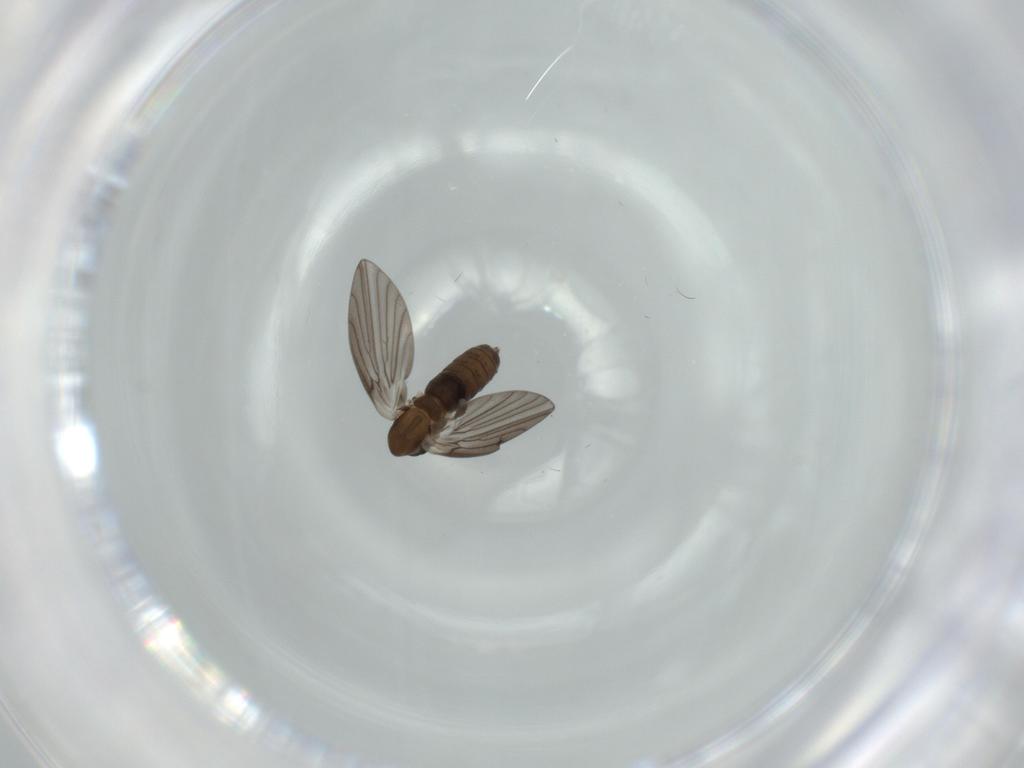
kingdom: Animalia
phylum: Arthropoda
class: Insecta
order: Diptera
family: Psychodidae
